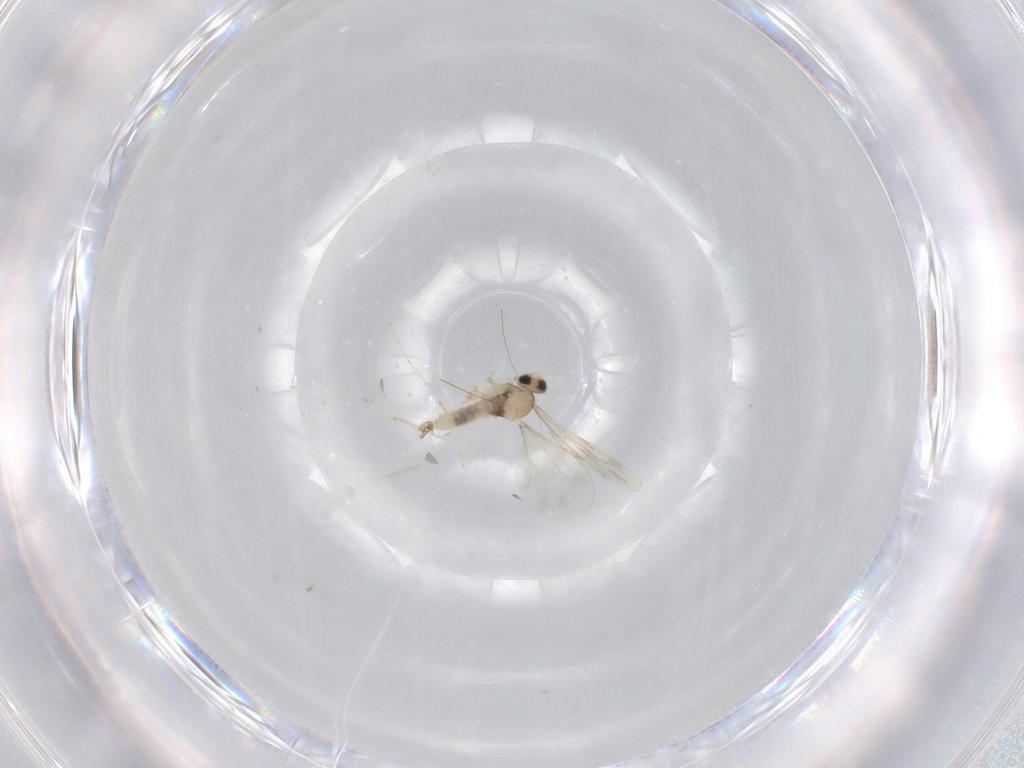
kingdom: Animalia
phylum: Arthropoda
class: Insecta
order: Diptera
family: Cecidomyiidae
